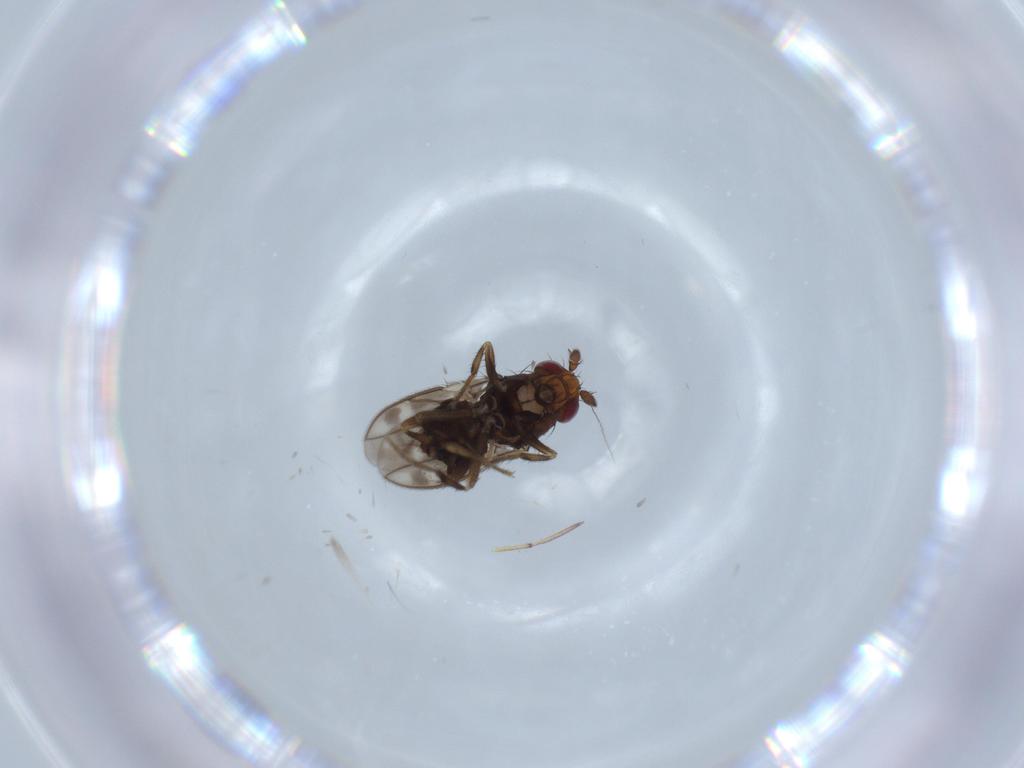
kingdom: Animalia
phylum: Arthropoda
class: Insecta
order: Diptera
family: Sphaeroceridae
